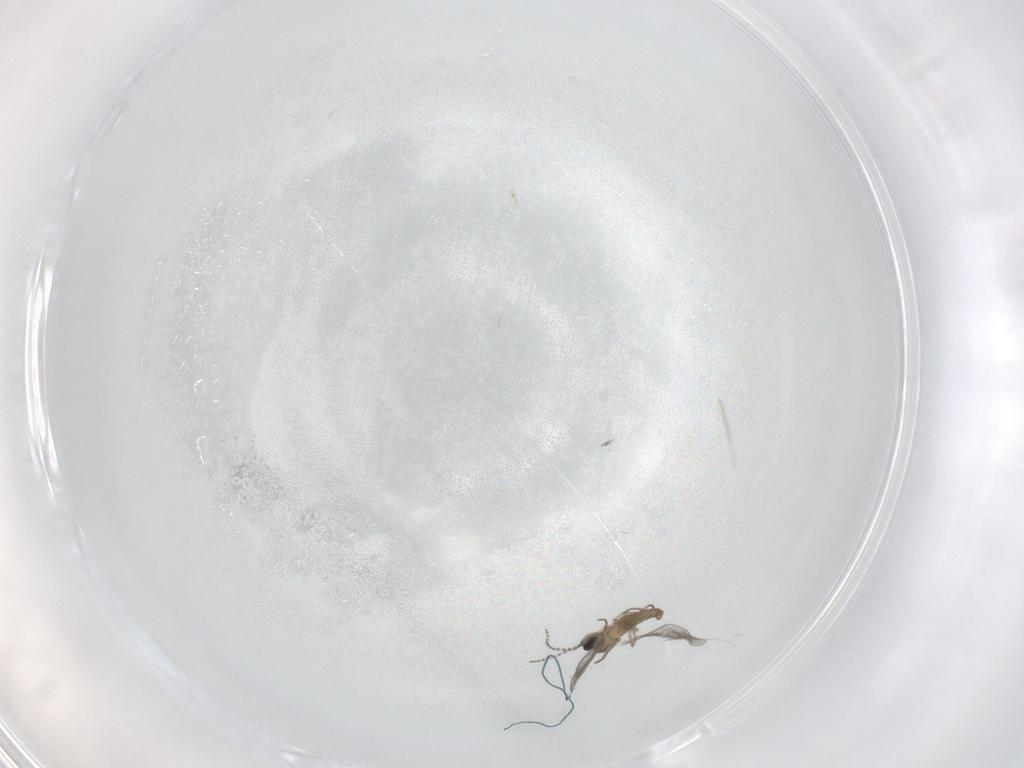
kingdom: Animalia
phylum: Arthropoda
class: Insecta
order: Diptera
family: Cecidomyiidae
